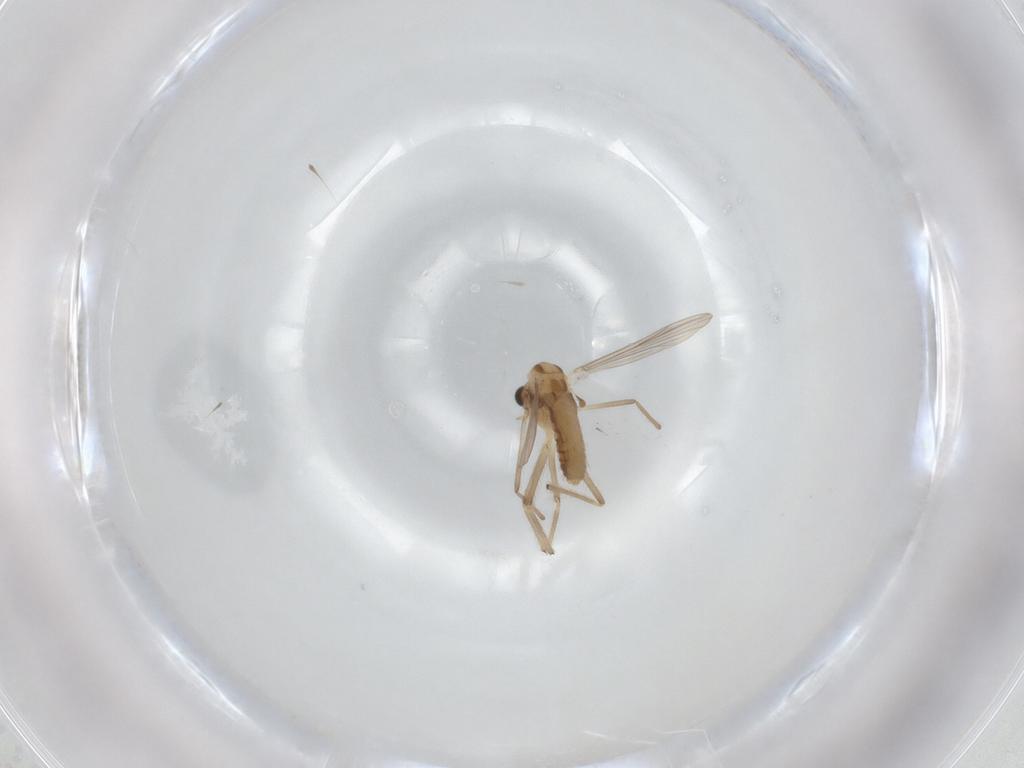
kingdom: Animalia
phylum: Arthropoda
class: Insecta
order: Diptera
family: Chironomidae
